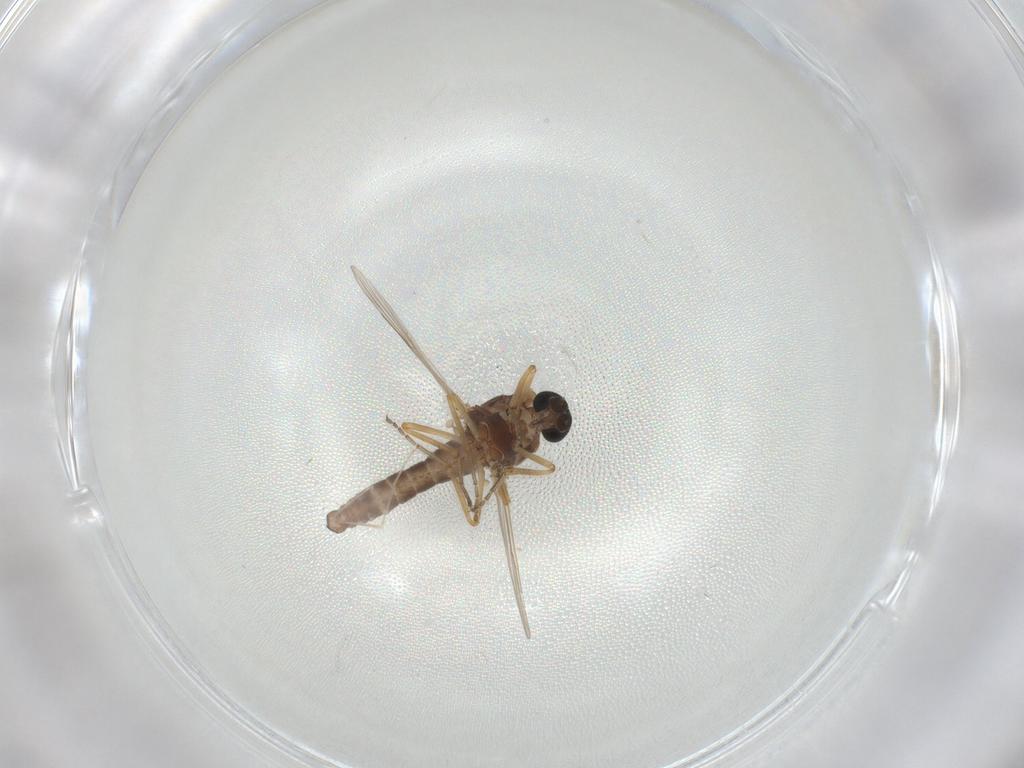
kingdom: Animalia
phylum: Arthropoda
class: Insecta
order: Diptera
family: Ceratopogonidae
